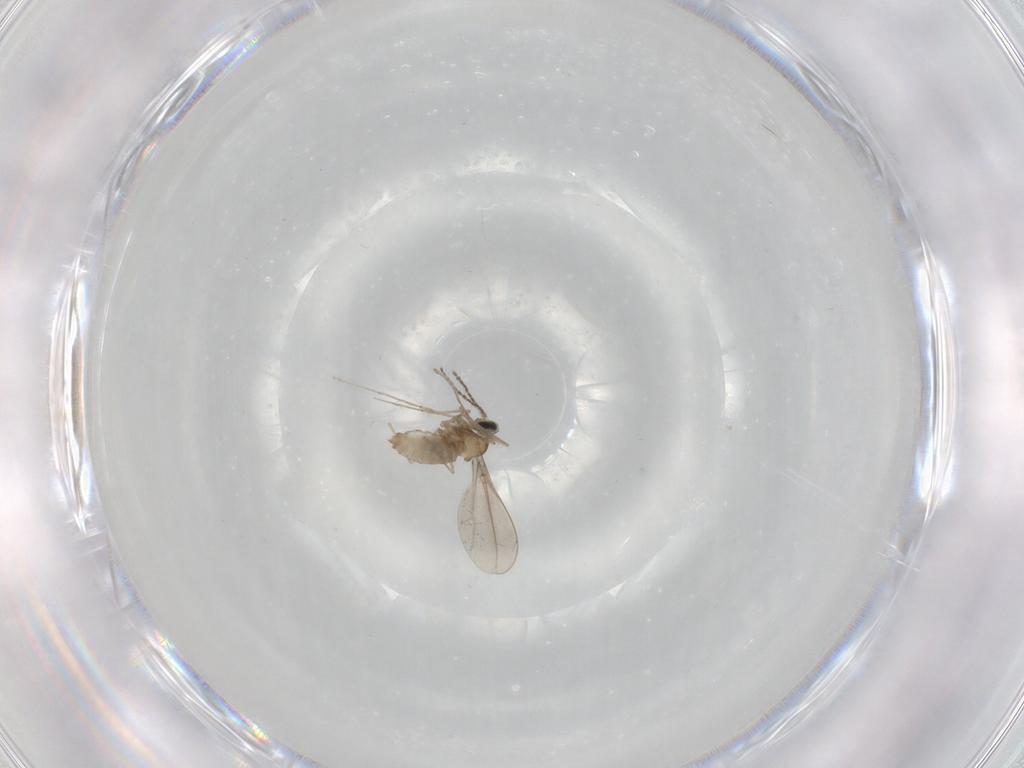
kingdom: Animalia
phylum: Arthropoda
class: Insecta
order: Diptera
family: Cecidomyiidae
